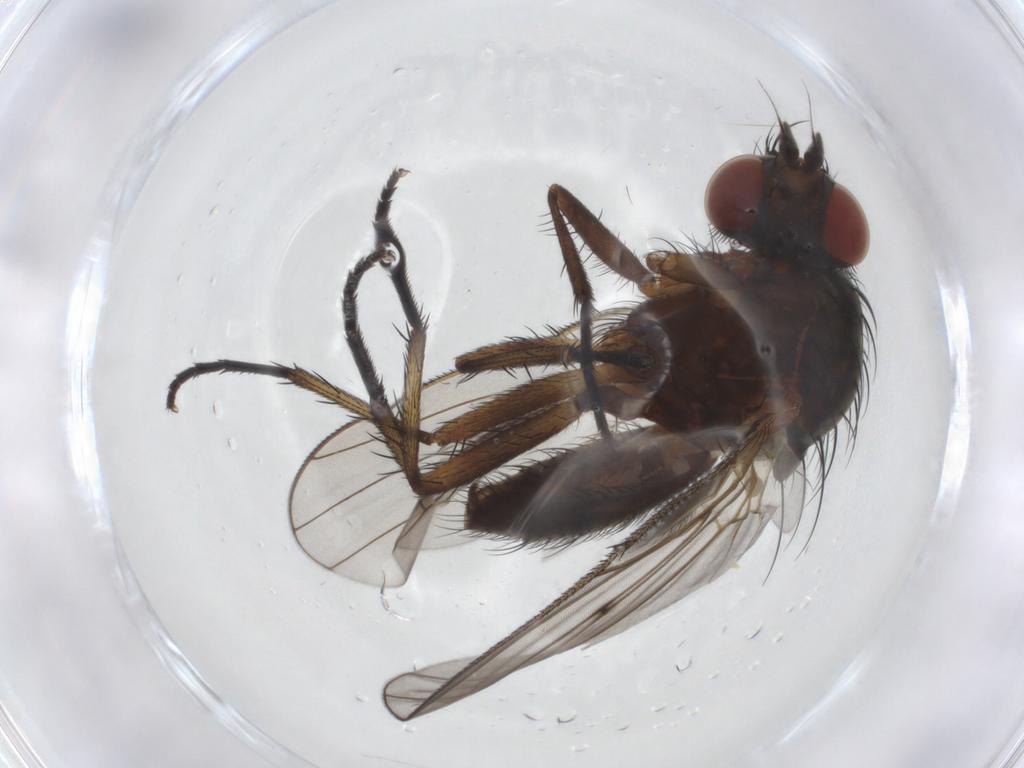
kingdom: Animalia
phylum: Arthropoda
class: Insecta
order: Diptera
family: Anthomyiidae
